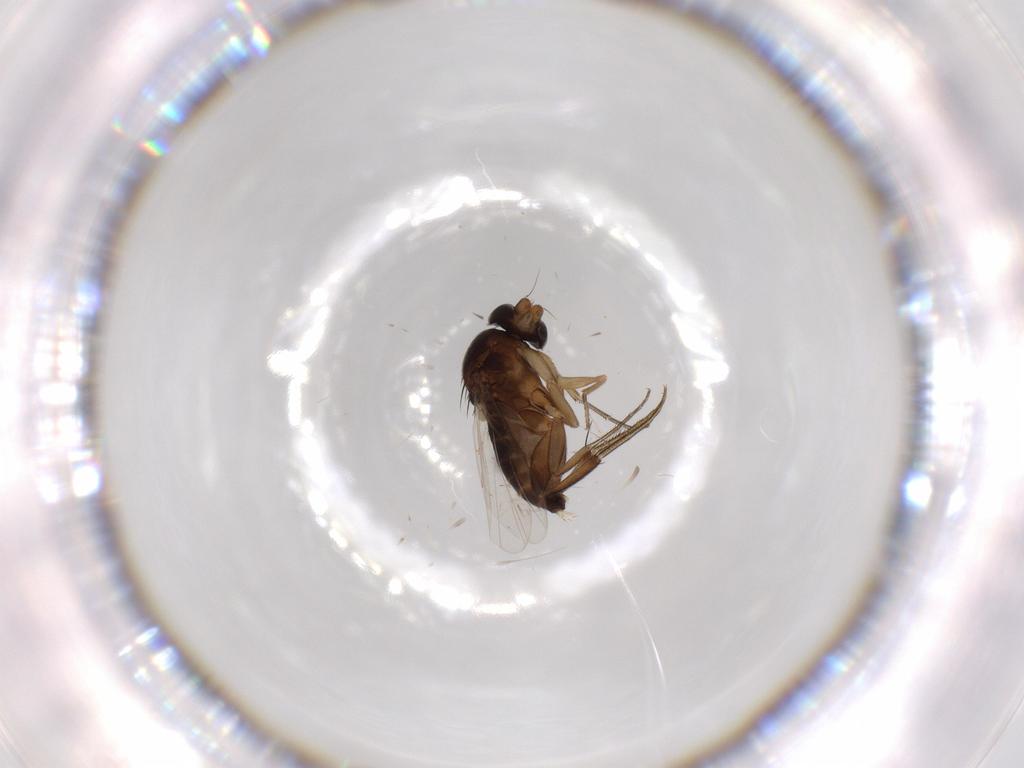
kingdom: Animalia
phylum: Arthropoda
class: Insecta
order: Diptera
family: Phoridae
